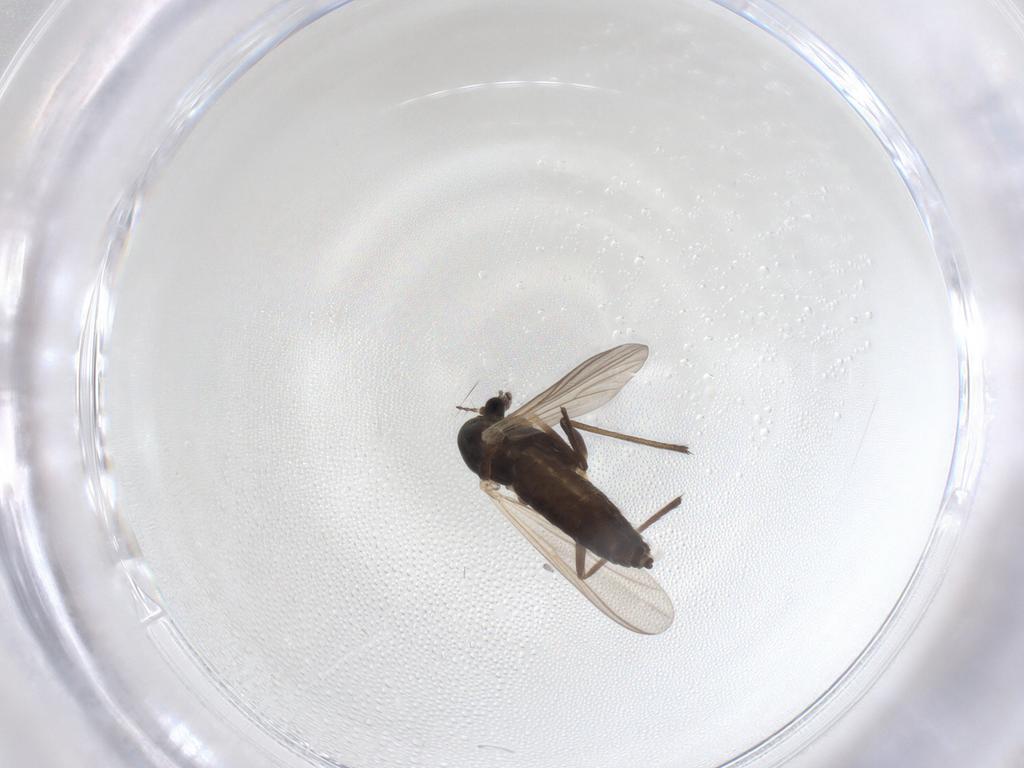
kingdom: Animalia
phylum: Arthropoda
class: Insecta
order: Diptera
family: Chironomidae
